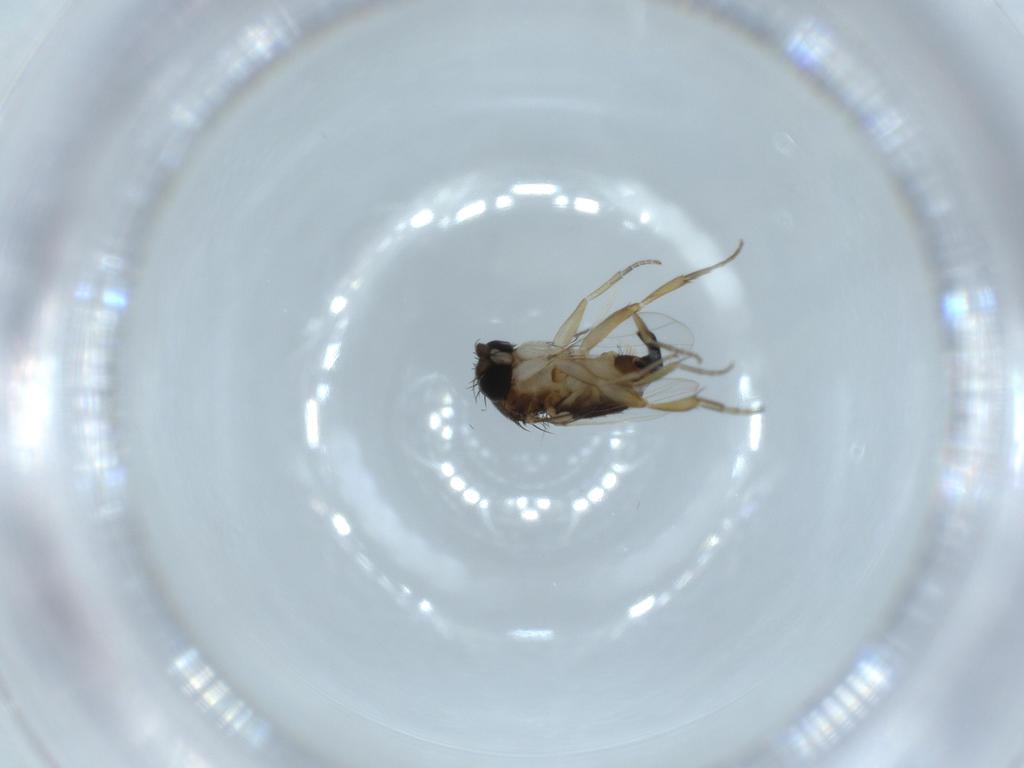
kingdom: Animalia
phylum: Arthropoda
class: Insecta
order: Diptera
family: Phoridae
